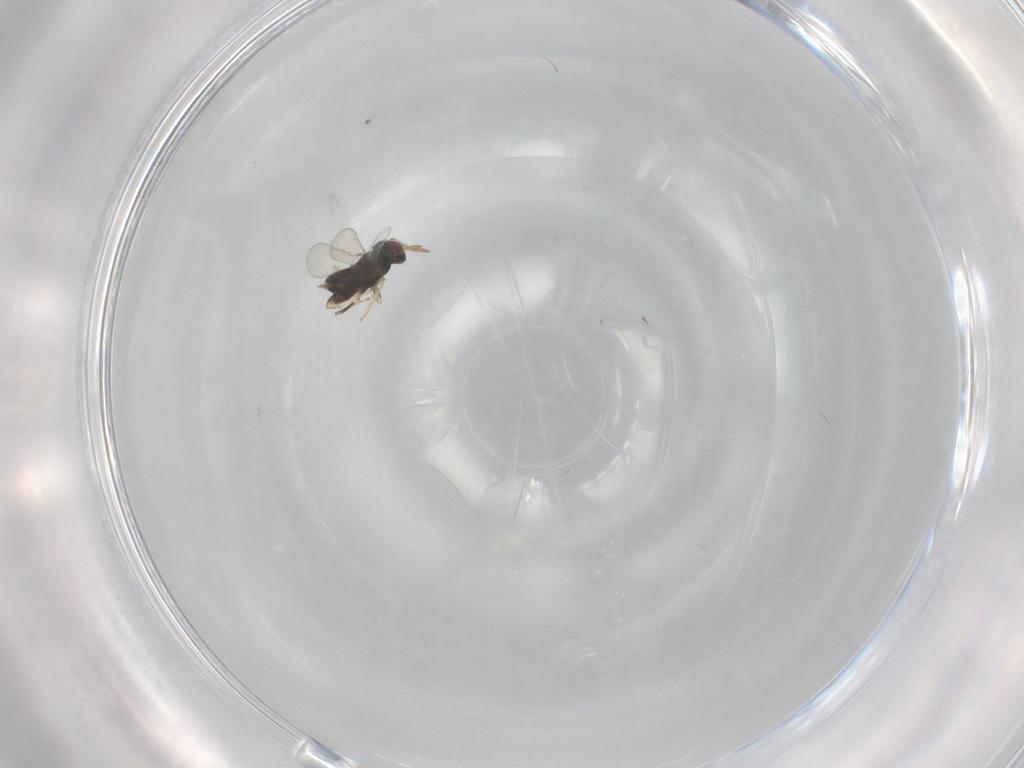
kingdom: Animalia
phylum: Arthropoda
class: Insecta
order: Hymenoptera
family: Aphelinidae
